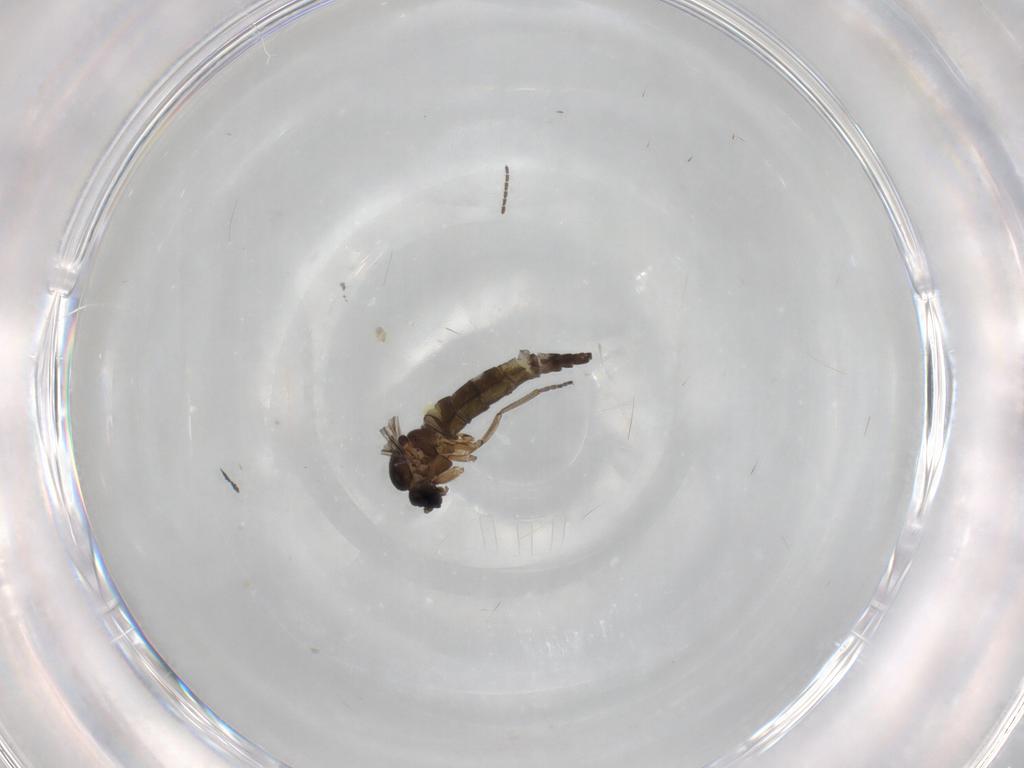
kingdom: Animalia
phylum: Arthropoda
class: Insecta
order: Diptera
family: Sciaridae
